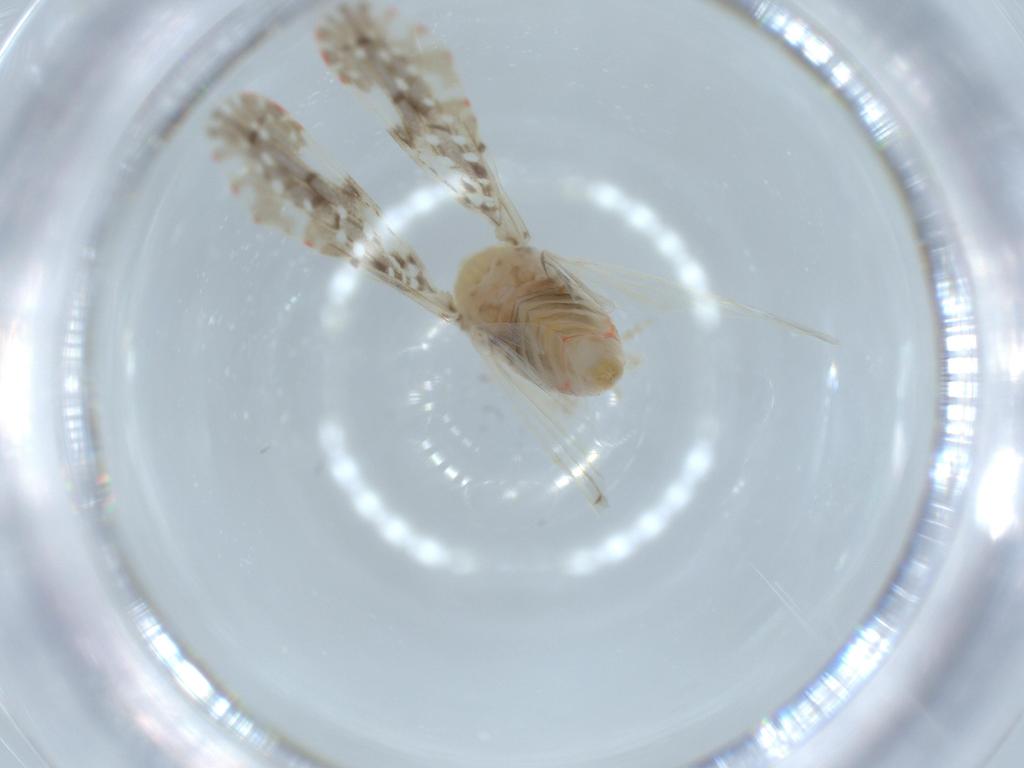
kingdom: Animalia
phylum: Arthropoda
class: Insecta
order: Hemiptera
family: Derbidae
